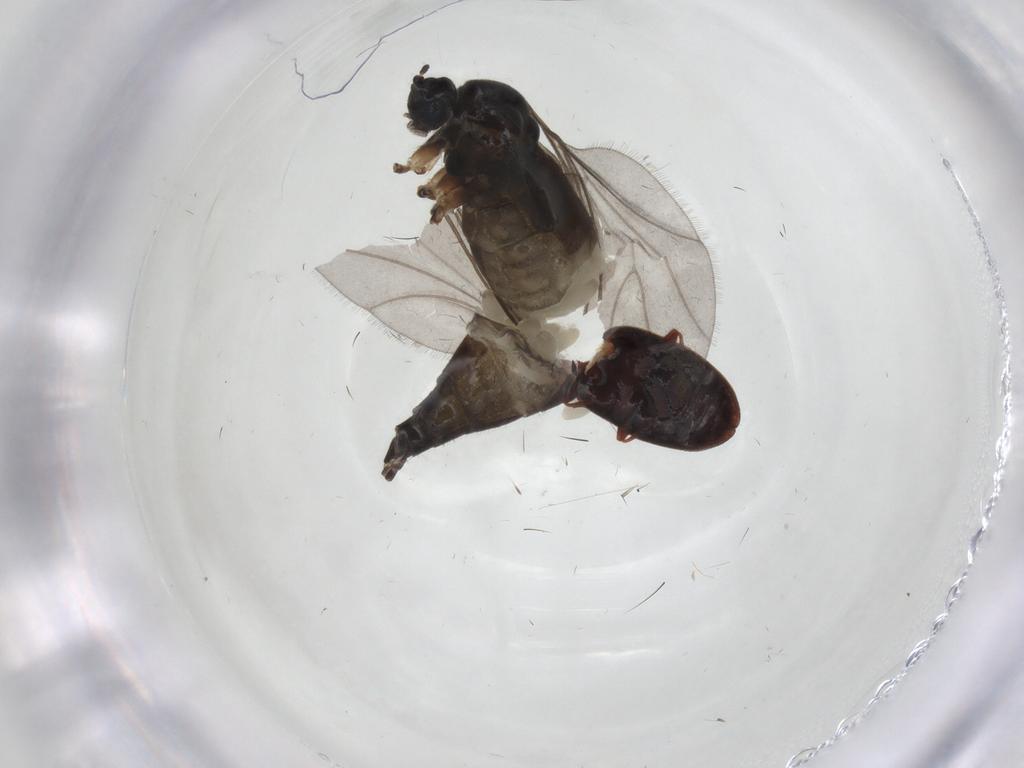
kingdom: Animalia
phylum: Arthropoda
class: Insecta
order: Coleoptera
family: Latridiidae
